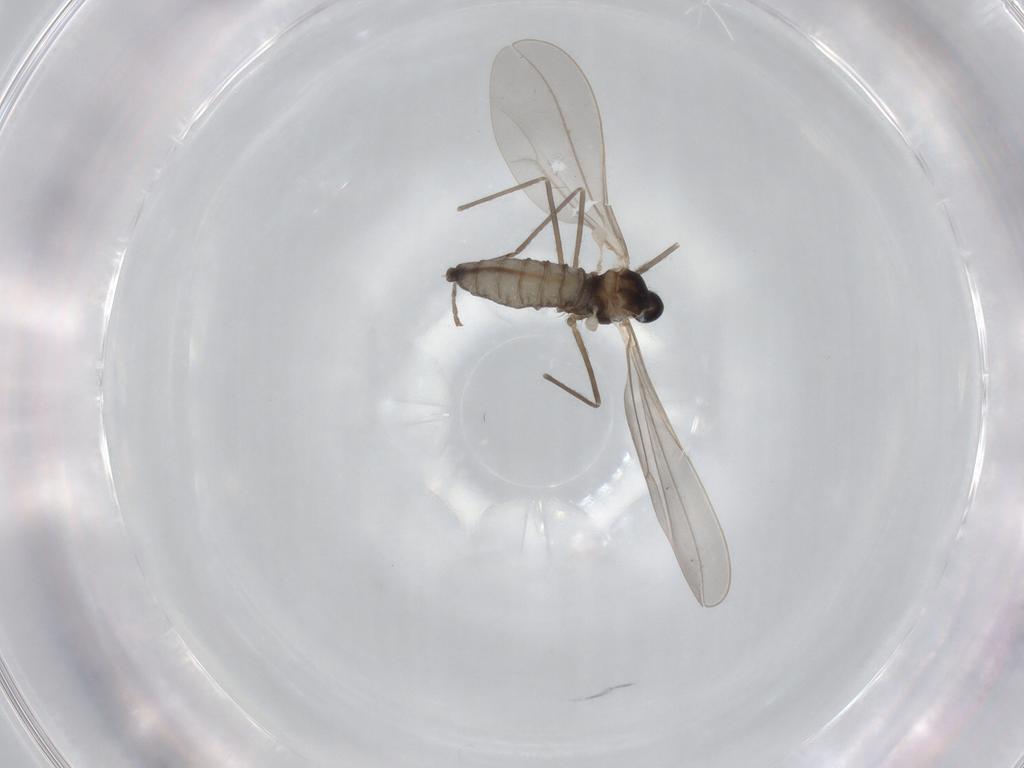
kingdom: Animalia
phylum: Arthropoda
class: Insecta
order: Diptera
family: Cecidomyiidae
